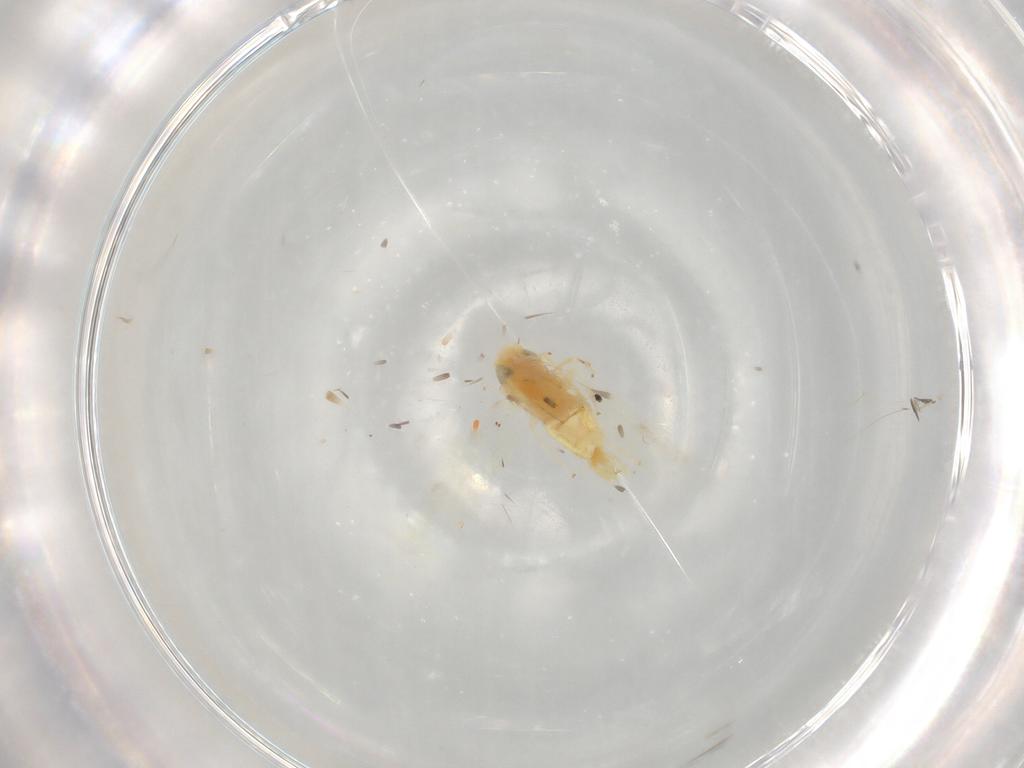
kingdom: Animalia
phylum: Arthropoda
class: Insecta
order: Hemiptera
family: Cicadellidae
